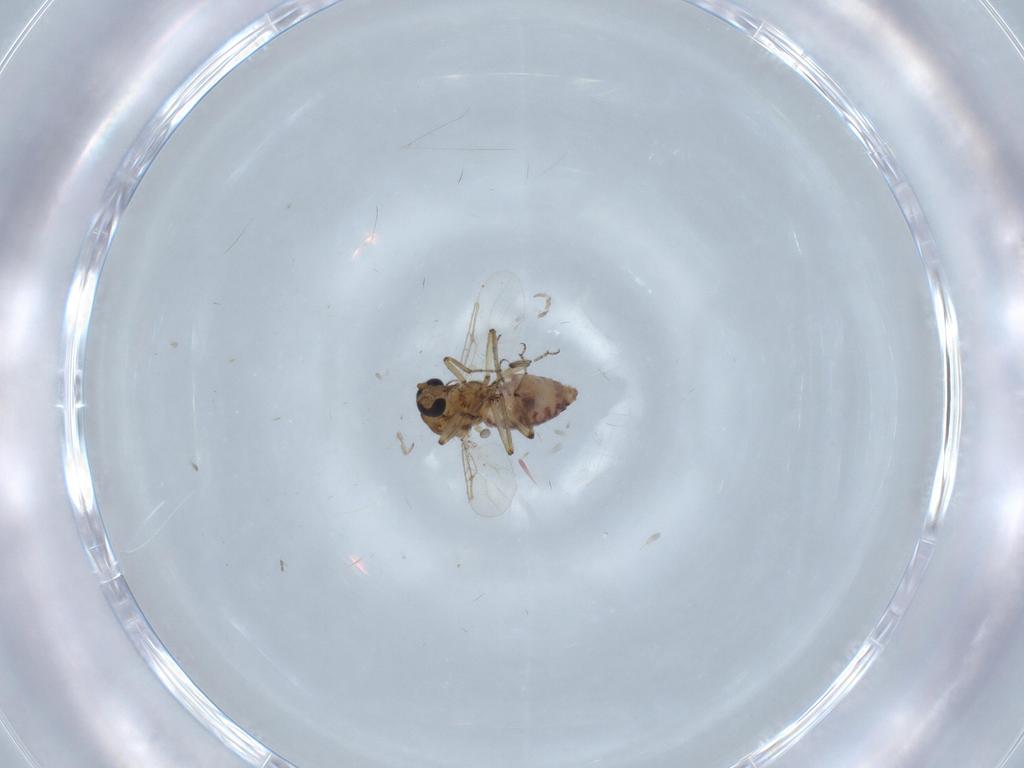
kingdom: Animalia
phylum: Arthropoda
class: Insecta
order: Diptera
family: Ceratopogonidae
